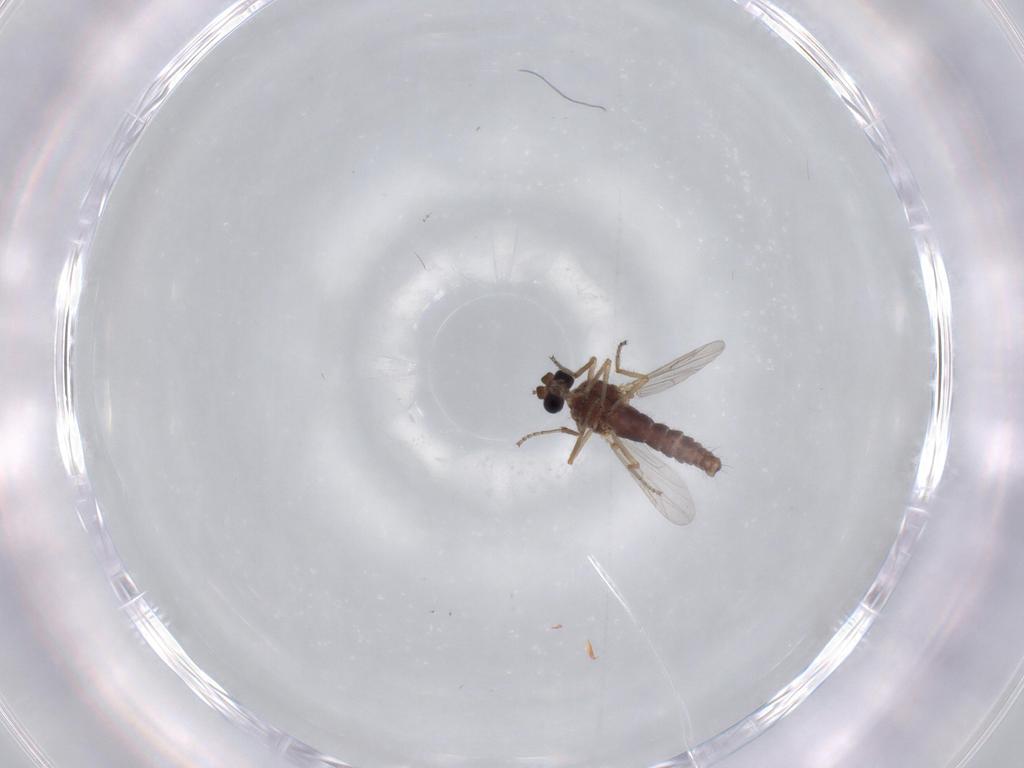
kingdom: Animalia
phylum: Arthropoda
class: Insecta
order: Diptera
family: Ceratopogonidae
